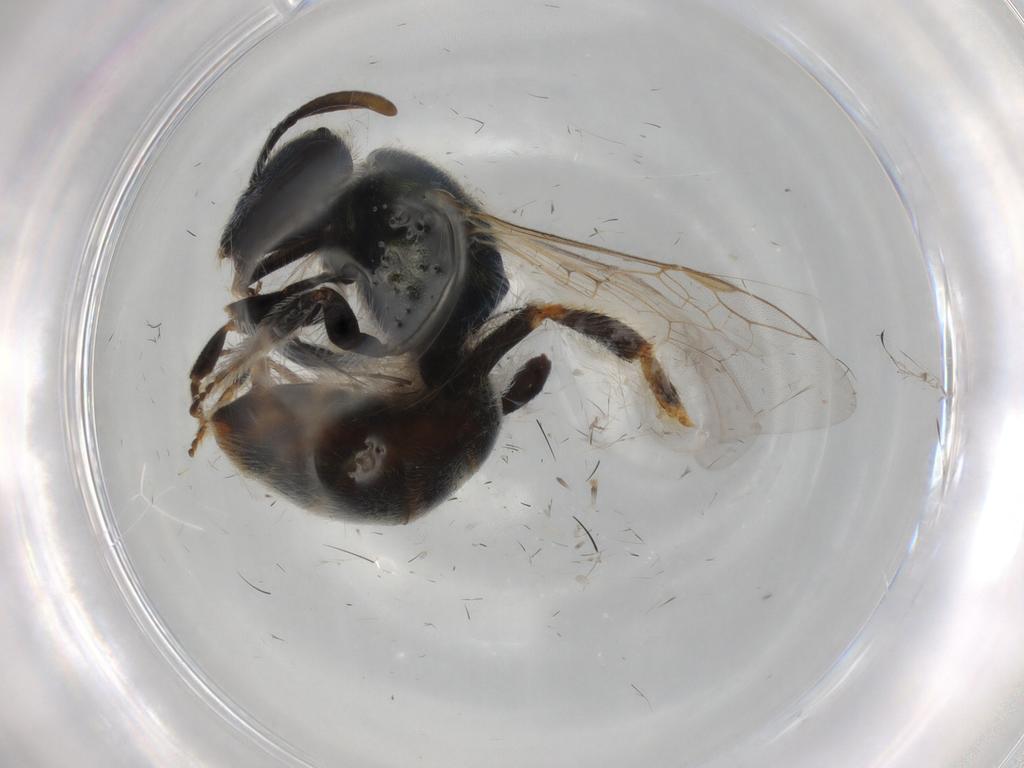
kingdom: Animalia
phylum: Arthropoda
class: Insecta
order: Hymenoptera
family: Halictidae
